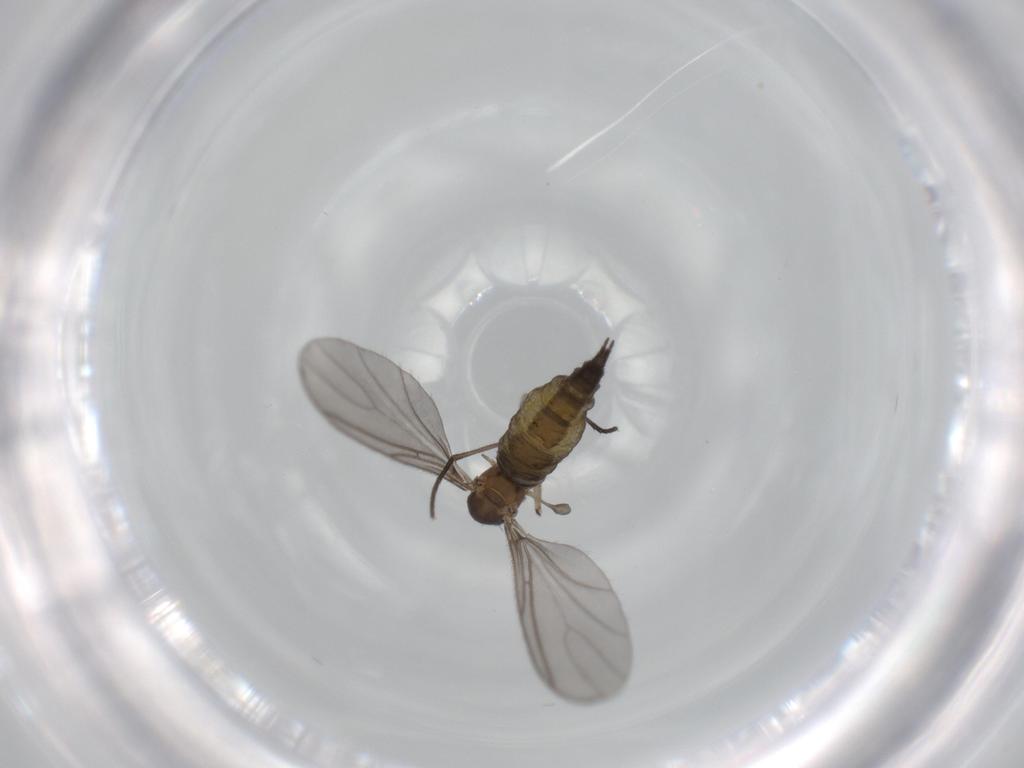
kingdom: Animalia
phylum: Arthropoda
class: Insecta
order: Diptera
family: Sciaridae
